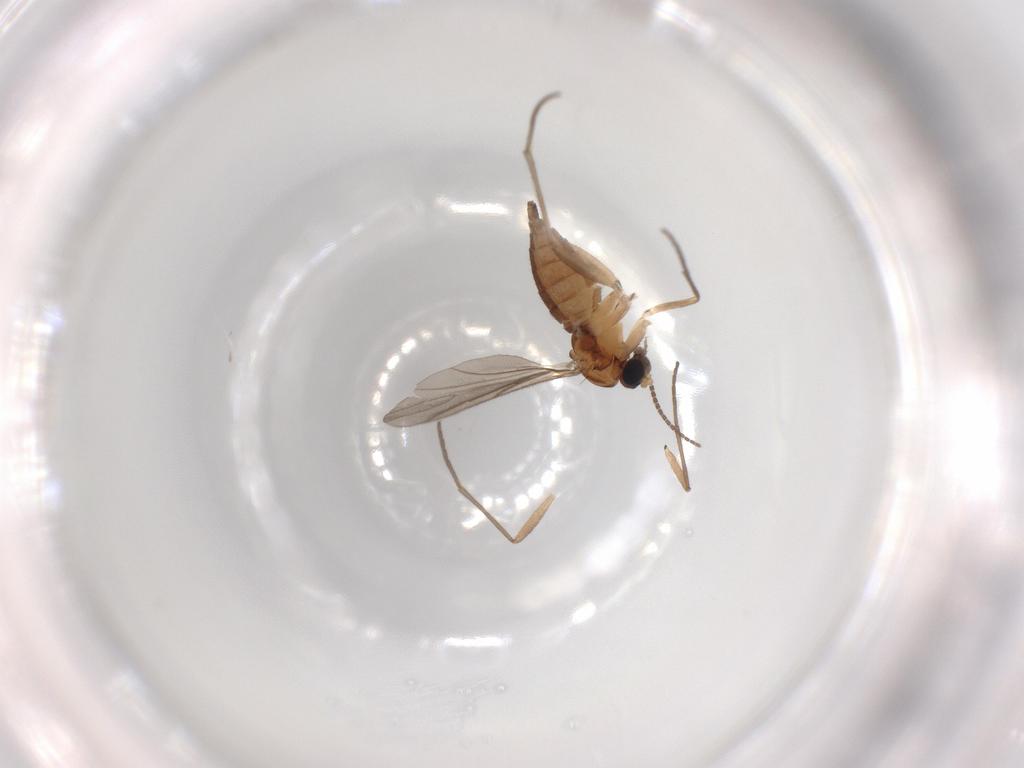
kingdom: Animalia
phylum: Arthropoda
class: Insecta
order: Diptera
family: Sciaridae
